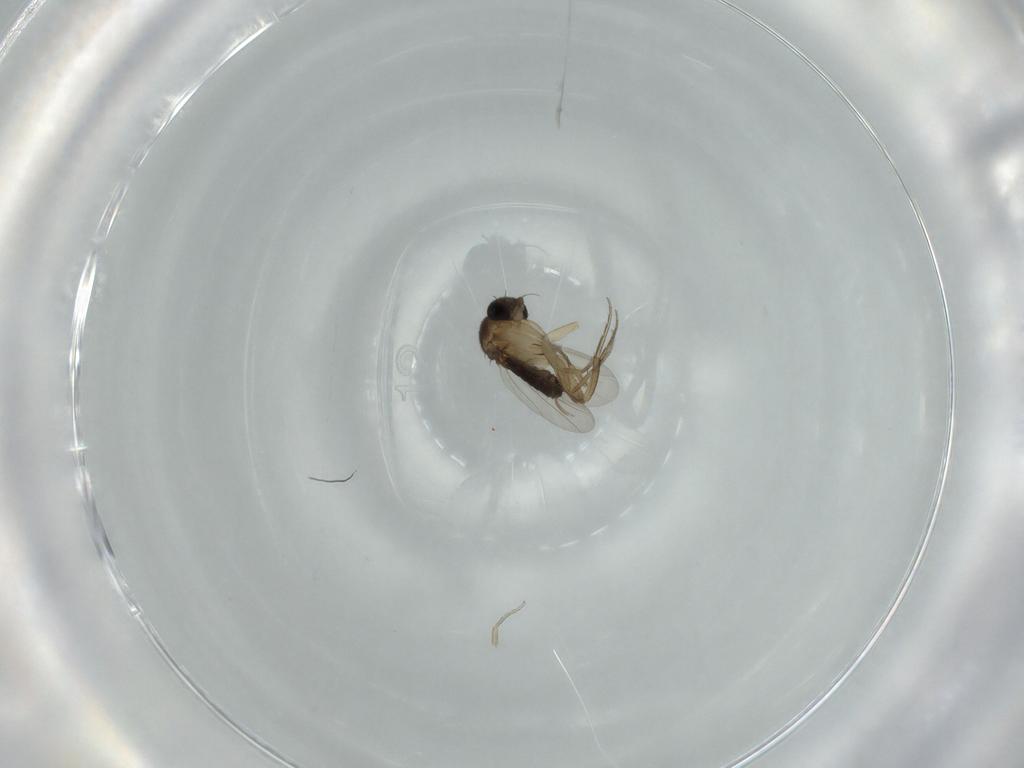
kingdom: Animalia
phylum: Arthropoda
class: Insecta
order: Diptera
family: Phoridae
